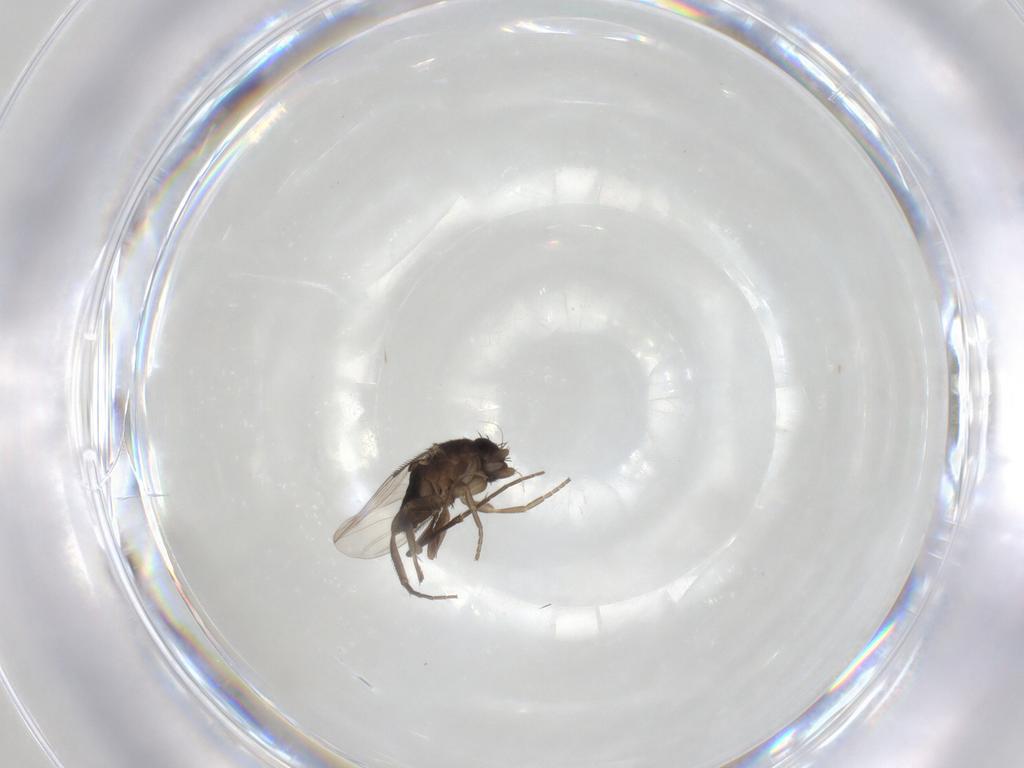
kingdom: Animalia
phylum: Arthropoda
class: Insecta
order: Diptera
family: Phoridae
